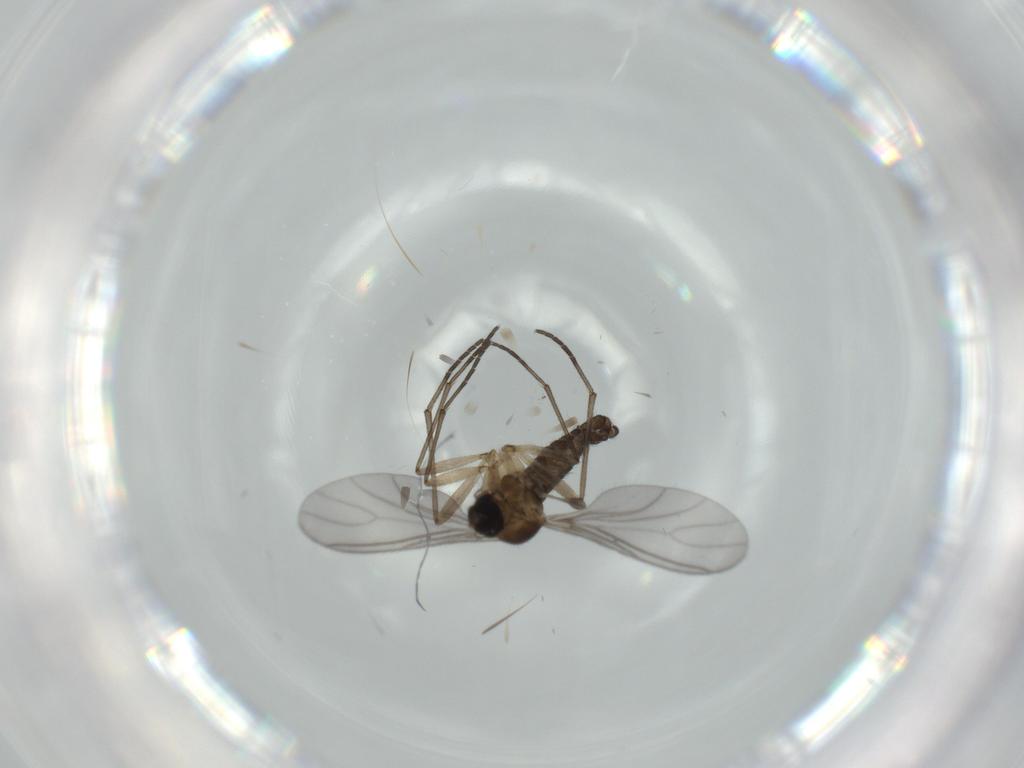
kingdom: Animalia
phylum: Arthropoda
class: Insecta
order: Diptera
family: Sciaridae
